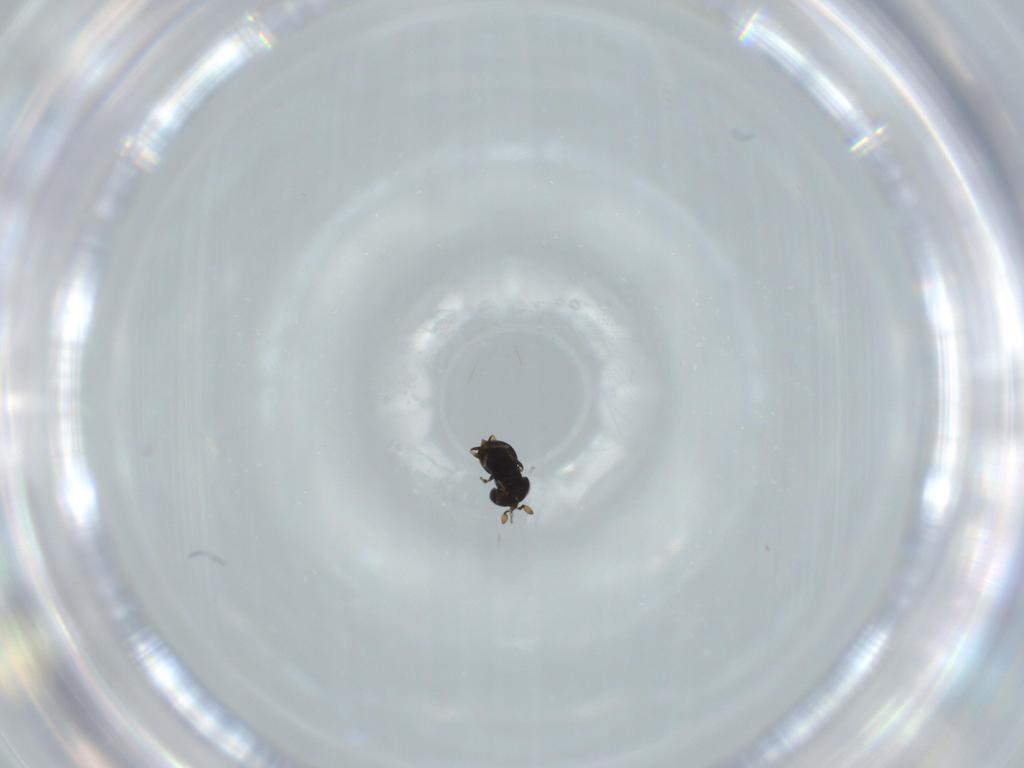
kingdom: Animalia
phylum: Arthropoda
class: Insecta
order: Hymenoptera
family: Scelionidae
